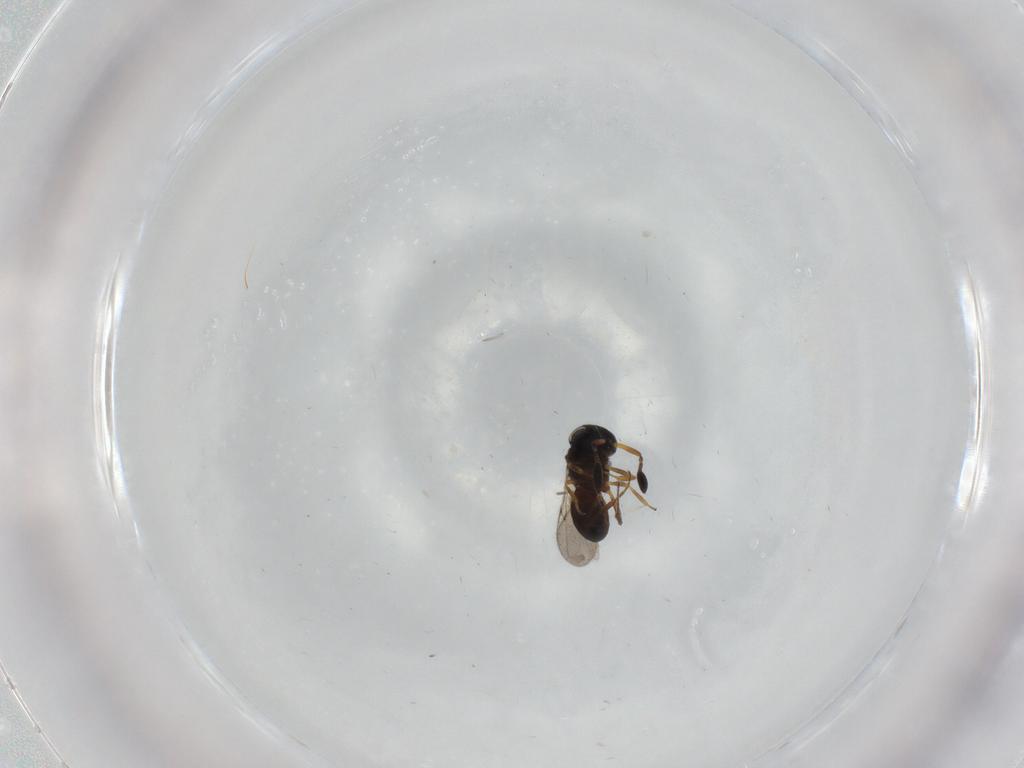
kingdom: Animalia
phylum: Arthropoda
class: Insecta
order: Hymenoptera
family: Scelionidae
